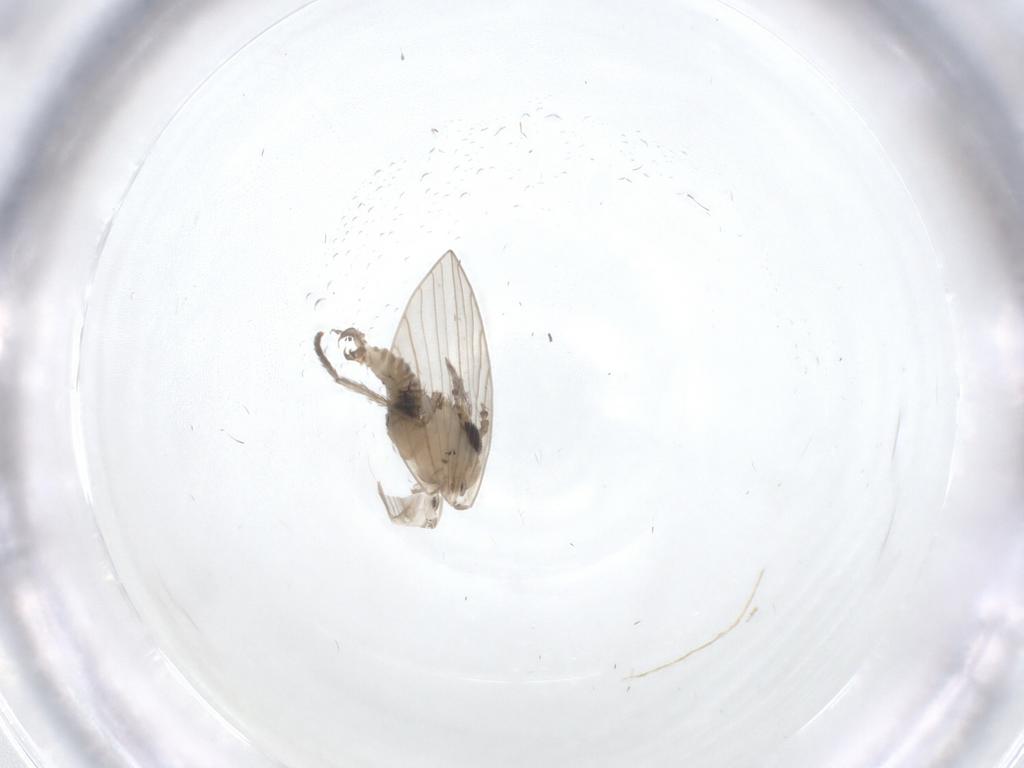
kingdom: Animalia
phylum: Arthropoda
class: Insecta
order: Diptera
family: Psychodidae
